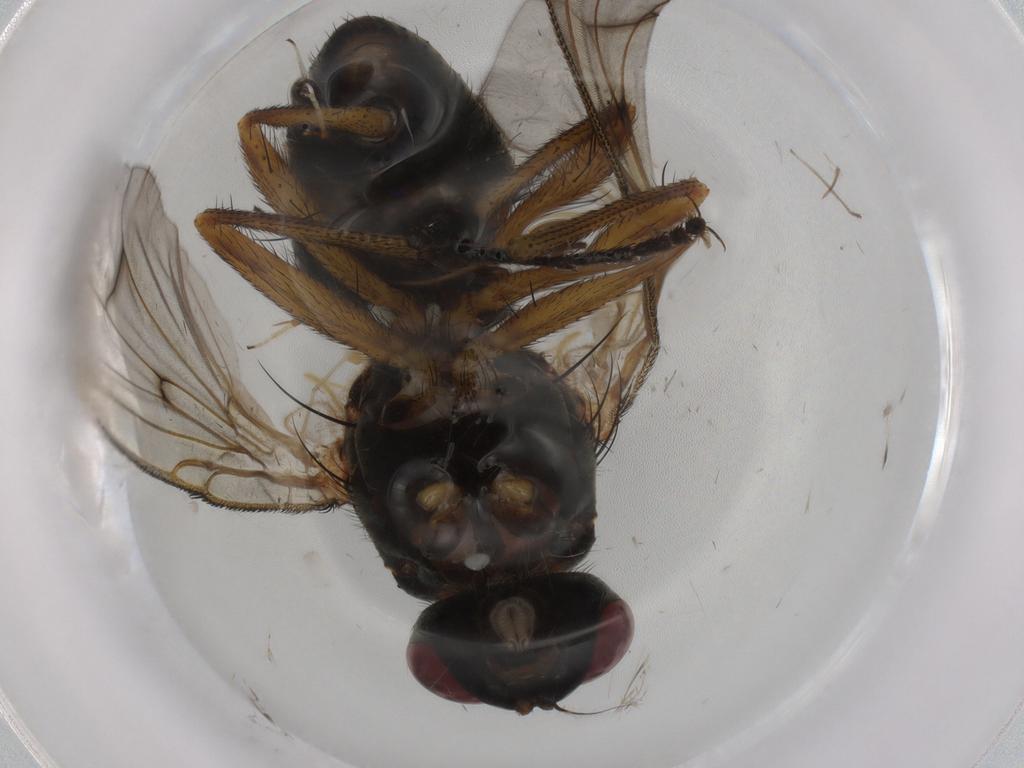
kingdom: Animalia
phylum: Arthropoda
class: Insecta
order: Diptera
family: Muscidae
